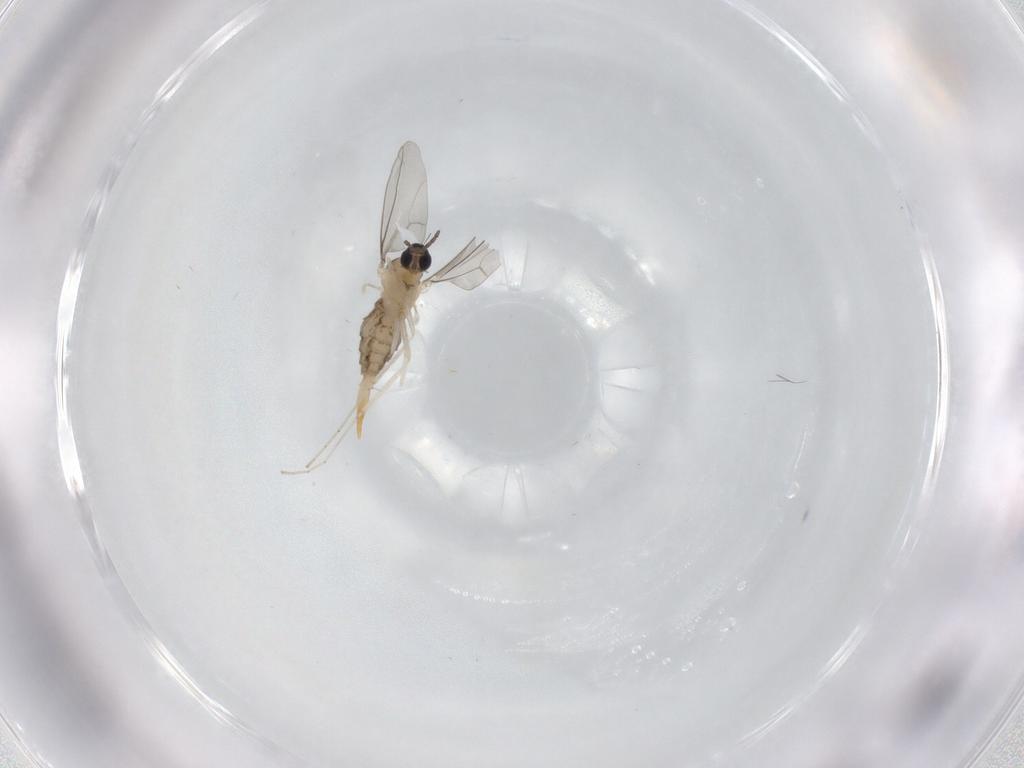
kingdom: Animalia
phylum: Arthropoda
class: Insecta
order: Diptera
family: Cecidomyiidae
